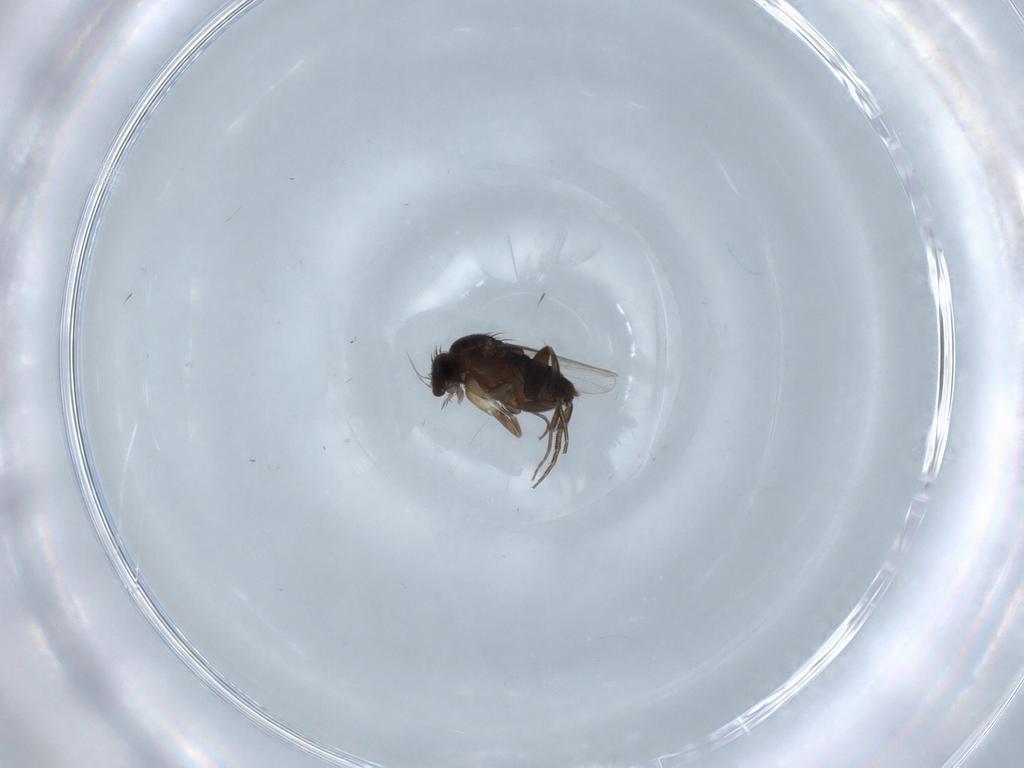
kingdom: Animalia
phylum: Arthropoda
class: Insecta
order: Diptera
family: Phoridae
